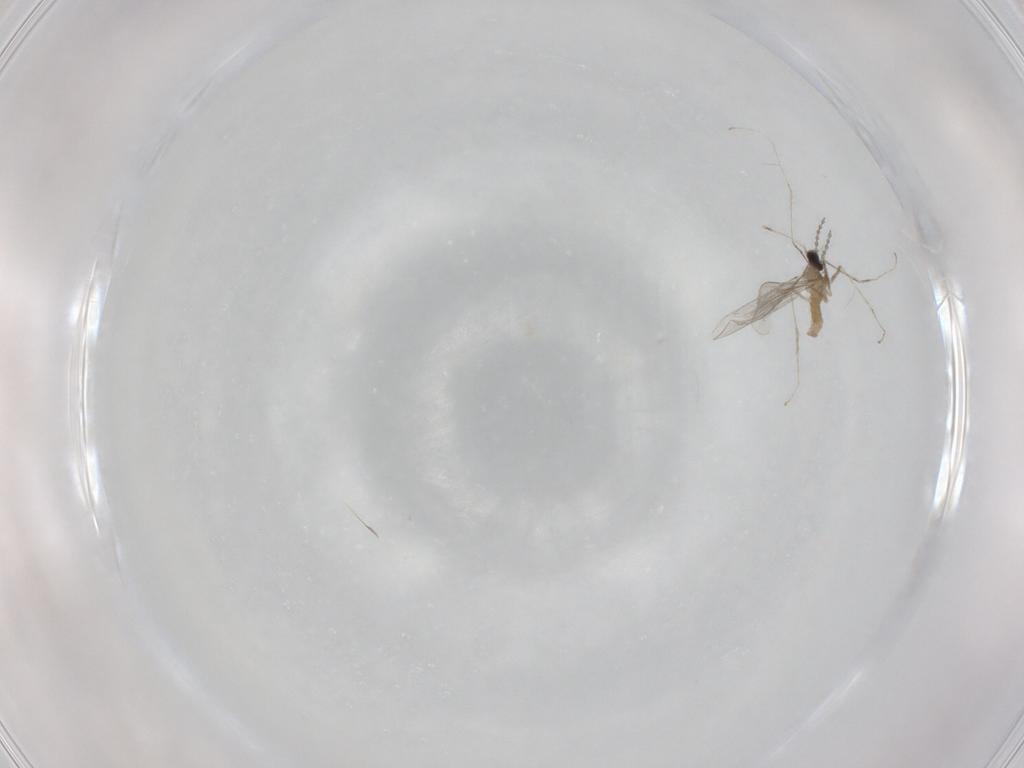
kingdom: Animalia
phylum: Arthropoda
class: Insecta
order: Diptera
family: Cecidomyiidae
